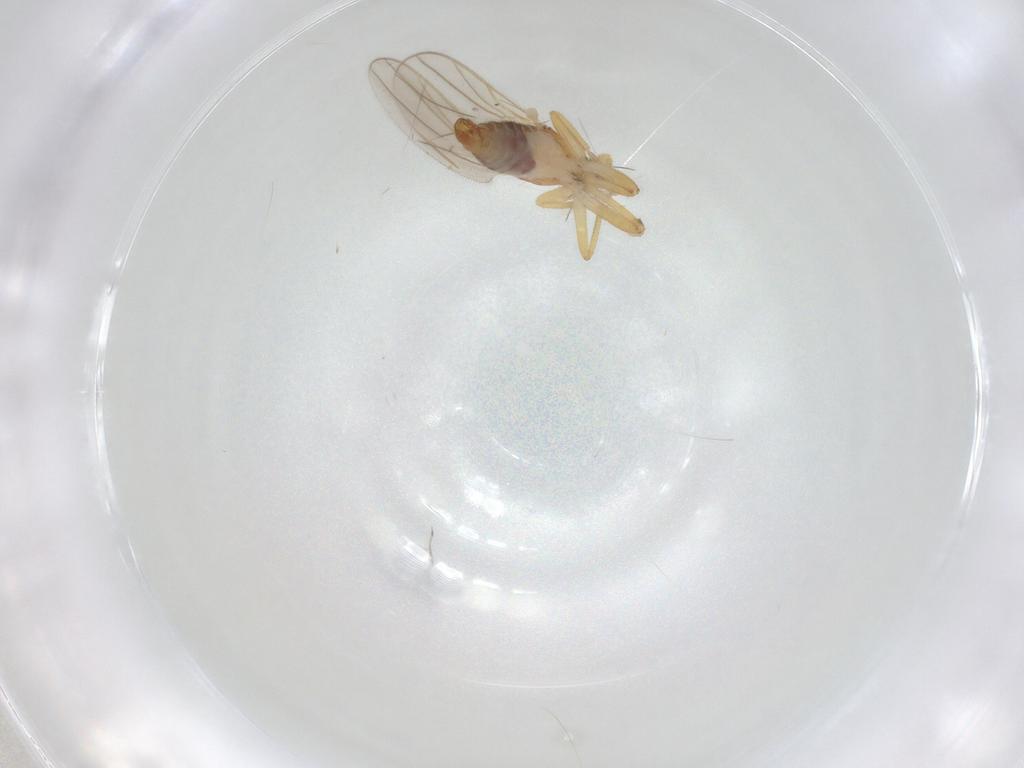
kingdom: Animalia
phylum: Arthropoda
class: Insecta
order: Diptera
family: Hybotidae
